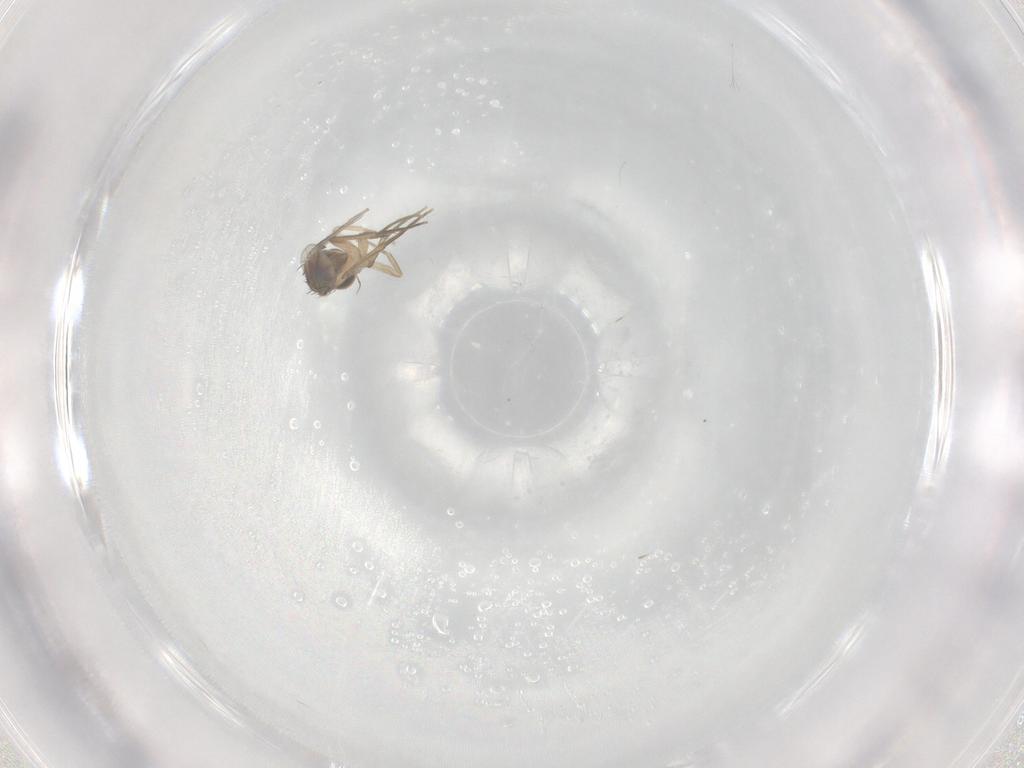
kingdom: Animalia
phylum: Arthropoda
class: Insecta
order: Diptera
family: Phoridae
